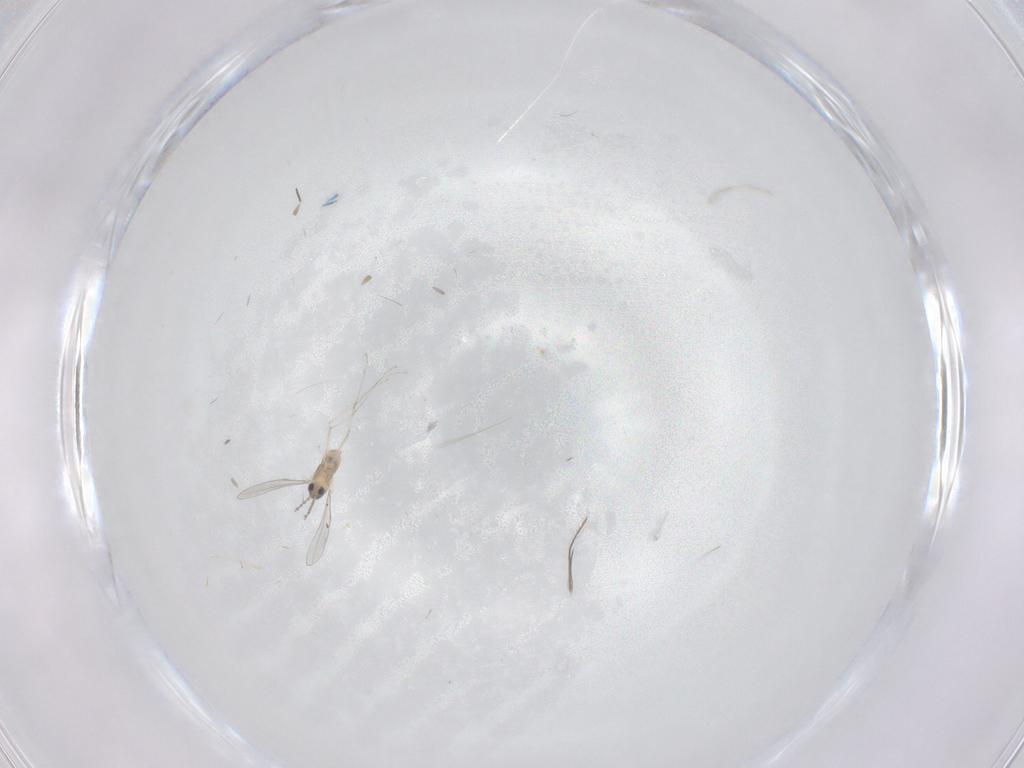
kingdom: Animalia
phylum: Arthropoda
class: Insecta
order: Diptera
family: Cecidomyiidae
